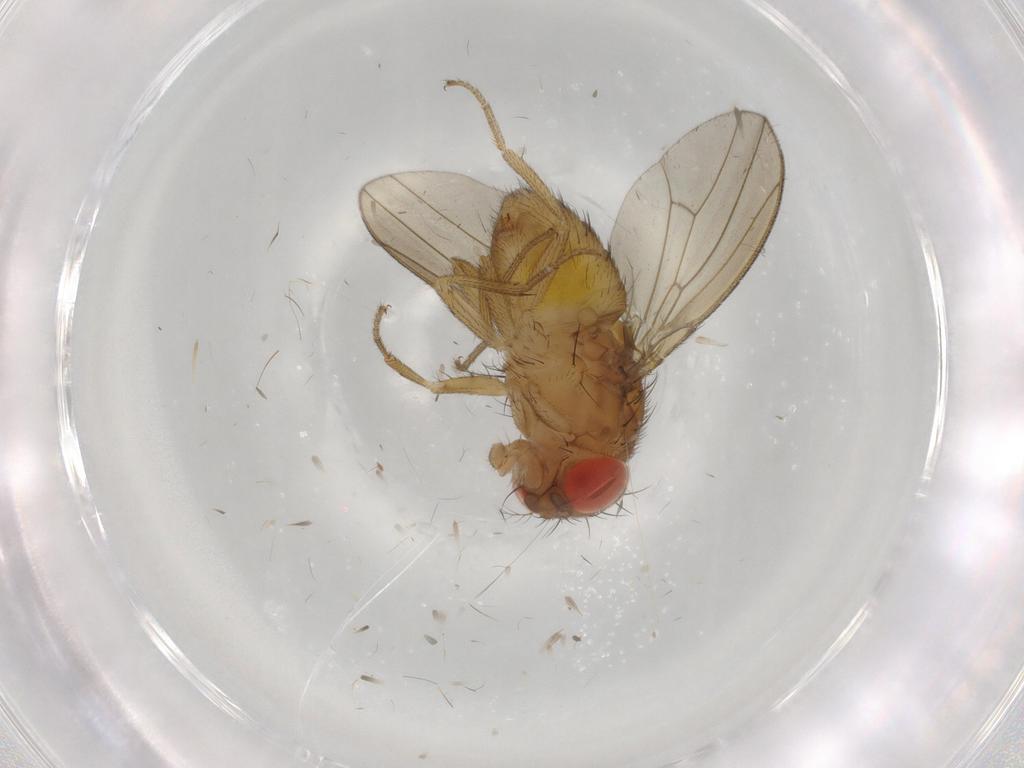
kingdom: Animalia
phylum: Arthropoda
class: Insecta
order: Diptera
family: Drosophilidae
